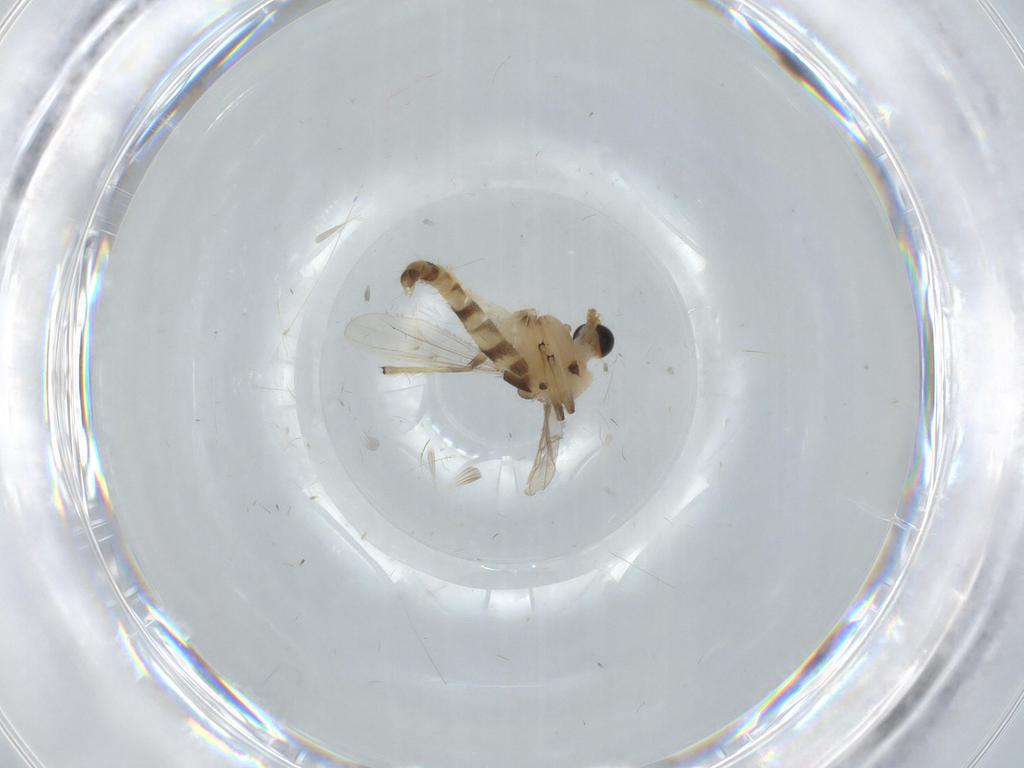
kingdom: Animalia
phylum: Arthropoda
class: Insecta
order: Diptera
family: Chironomidae
